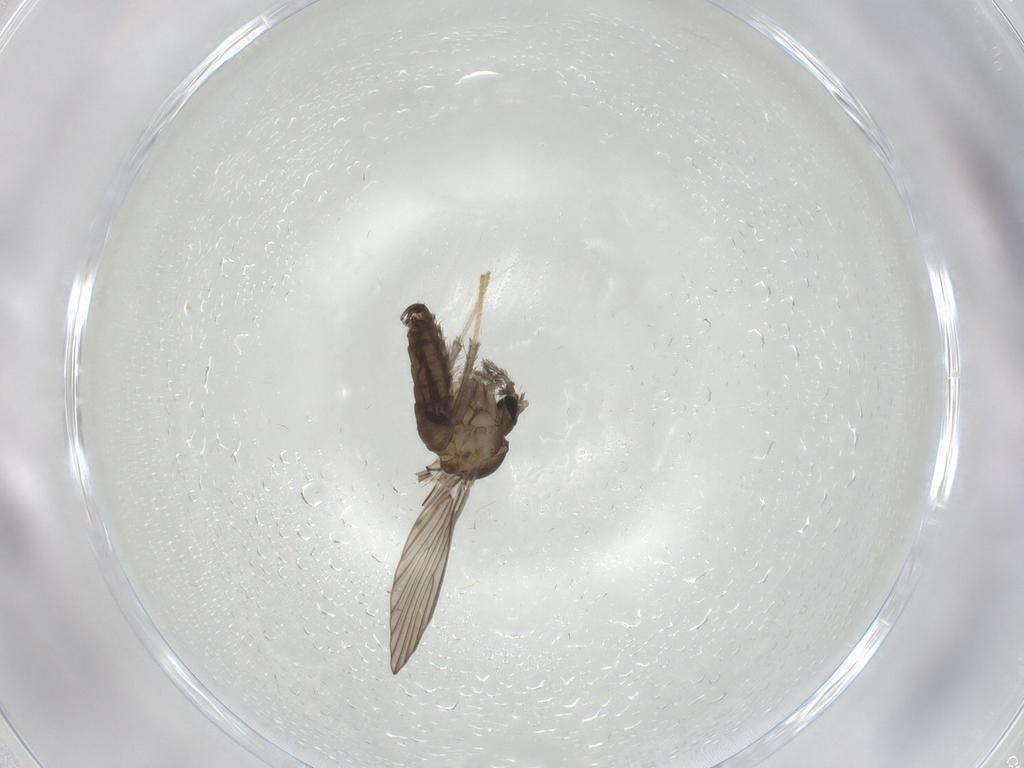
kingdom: Animalia
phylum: Arthropoda
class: Insecta
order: Diptera
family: Psychodidae
